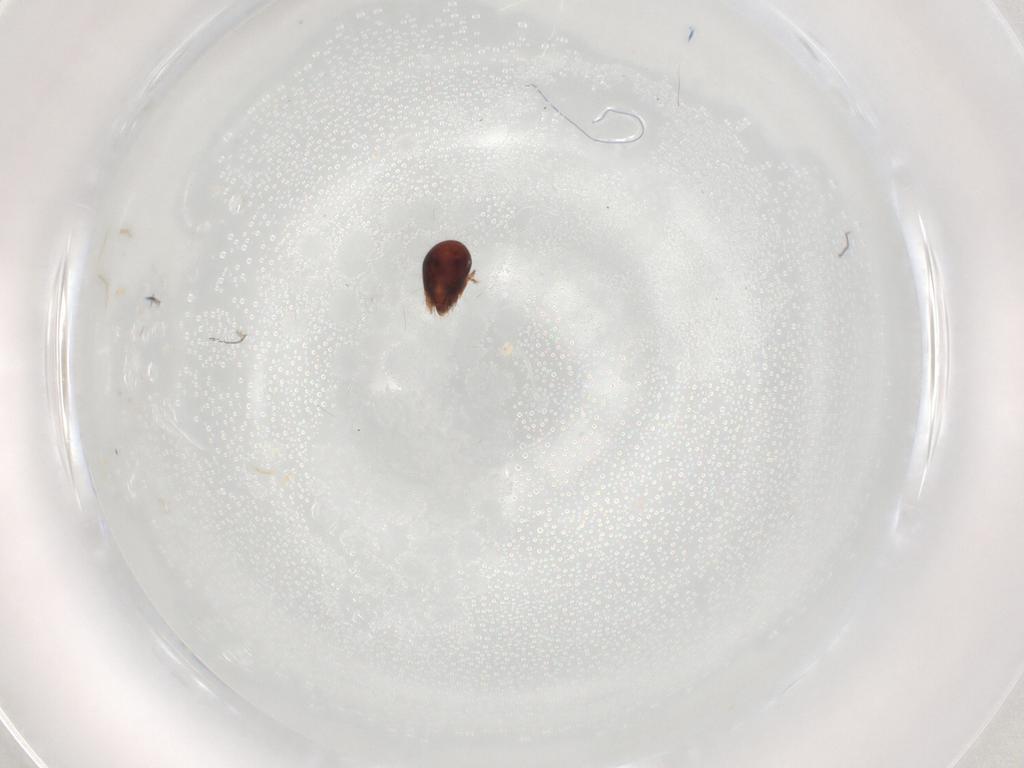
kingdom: Animalia
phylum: Arthropoda
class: Arachnida
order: Sarcoptiformes
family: Humerobatidae
